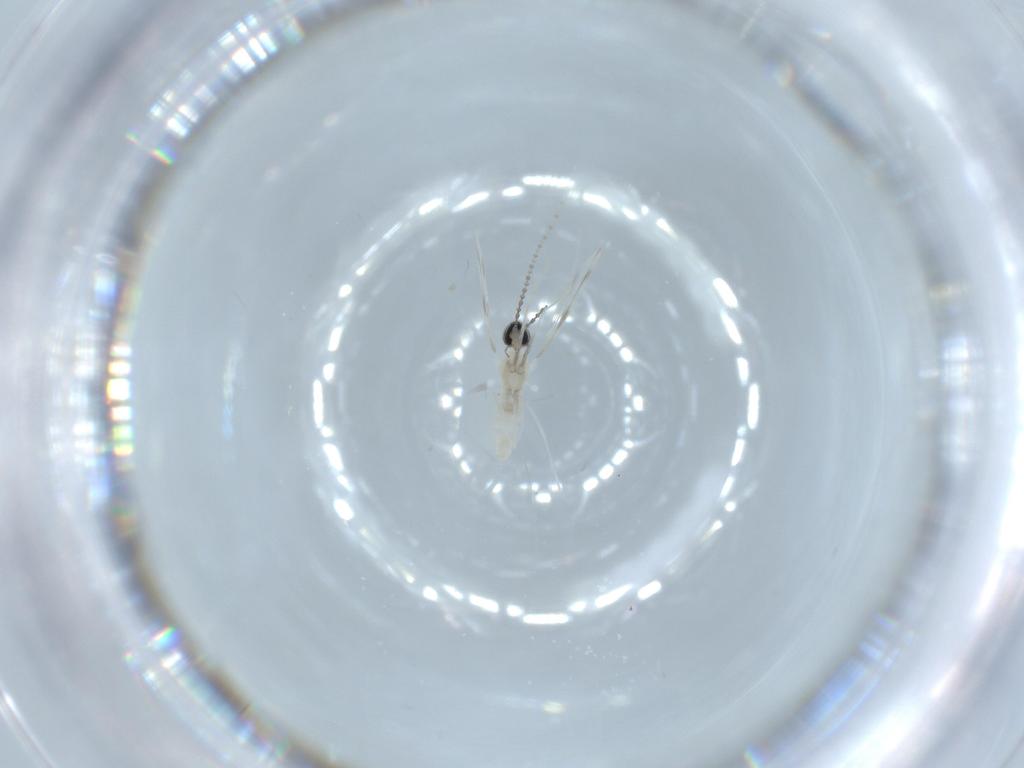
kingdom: Animalia
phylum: Arthropoda
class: Insecta
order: Diptera
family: Cecidomyiidae
